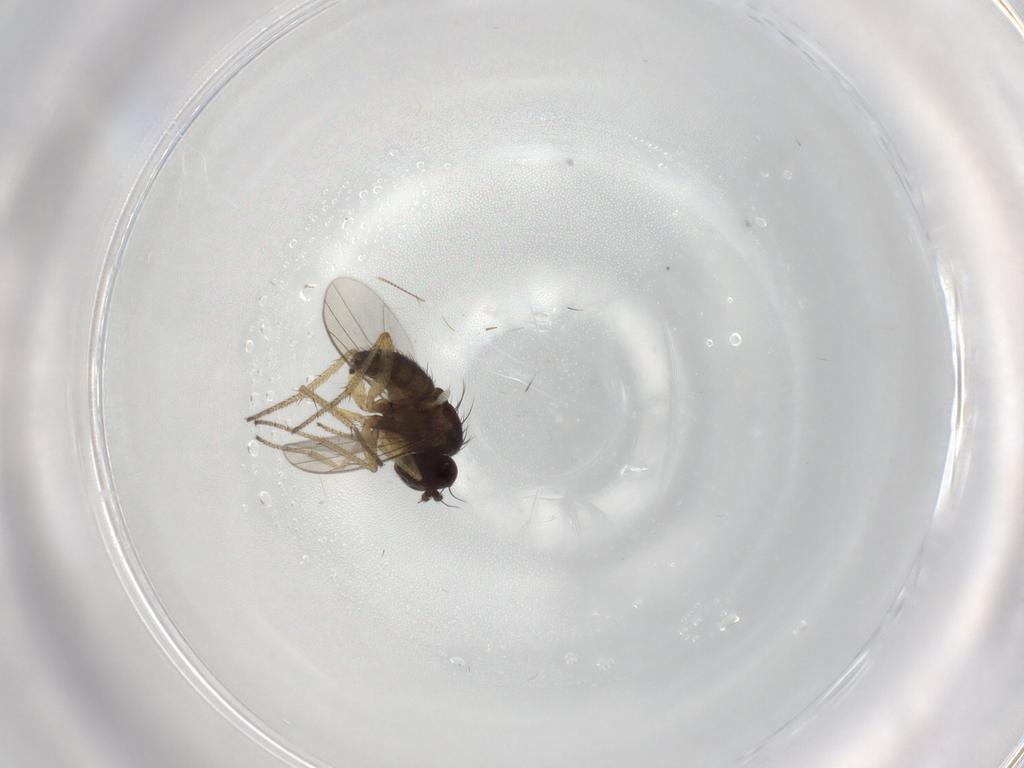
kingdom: Animalia
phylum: Arthropoda
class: Insecta
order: Diptera
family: Chironomidae
